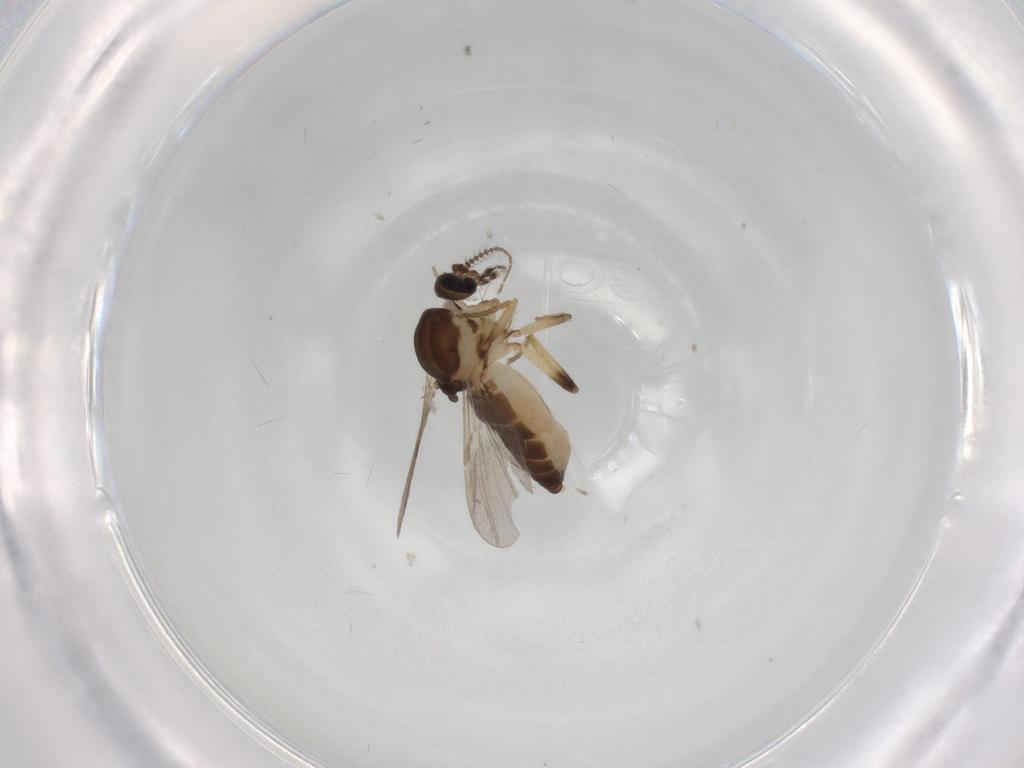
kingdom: Animalia
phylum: Arthropoda
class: Insecta
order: Diptera
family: Ceratopogonidae
